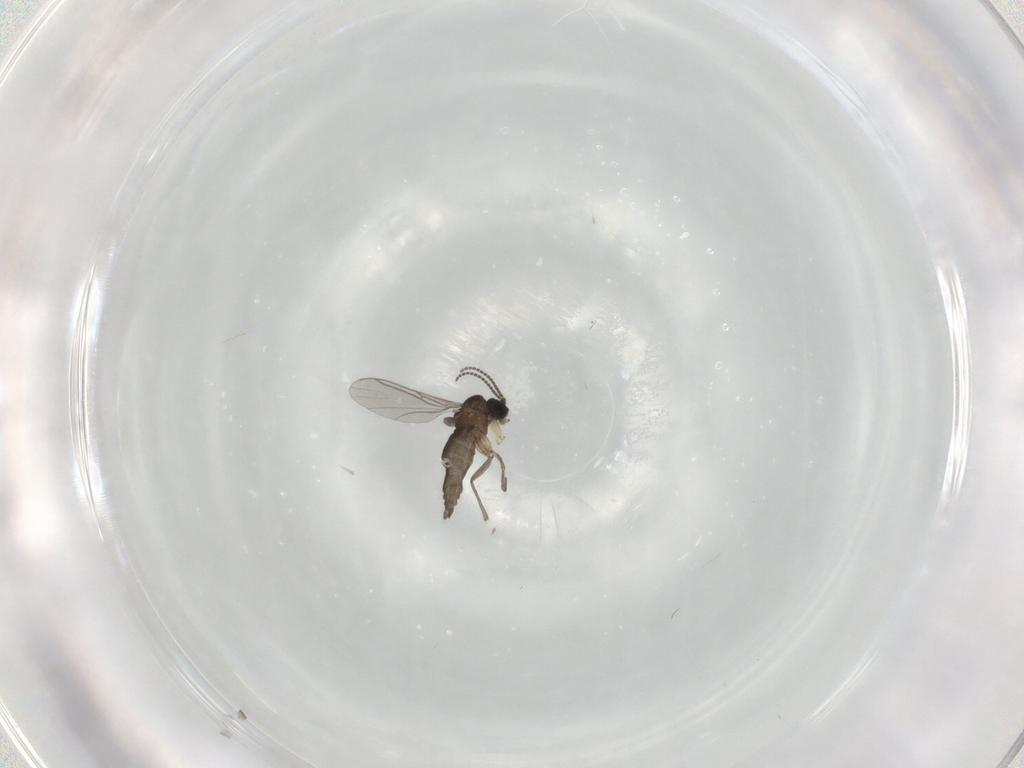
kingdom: Animalia
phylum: Arthropoda
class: Insecta
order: Diptera
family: Sciaridae
